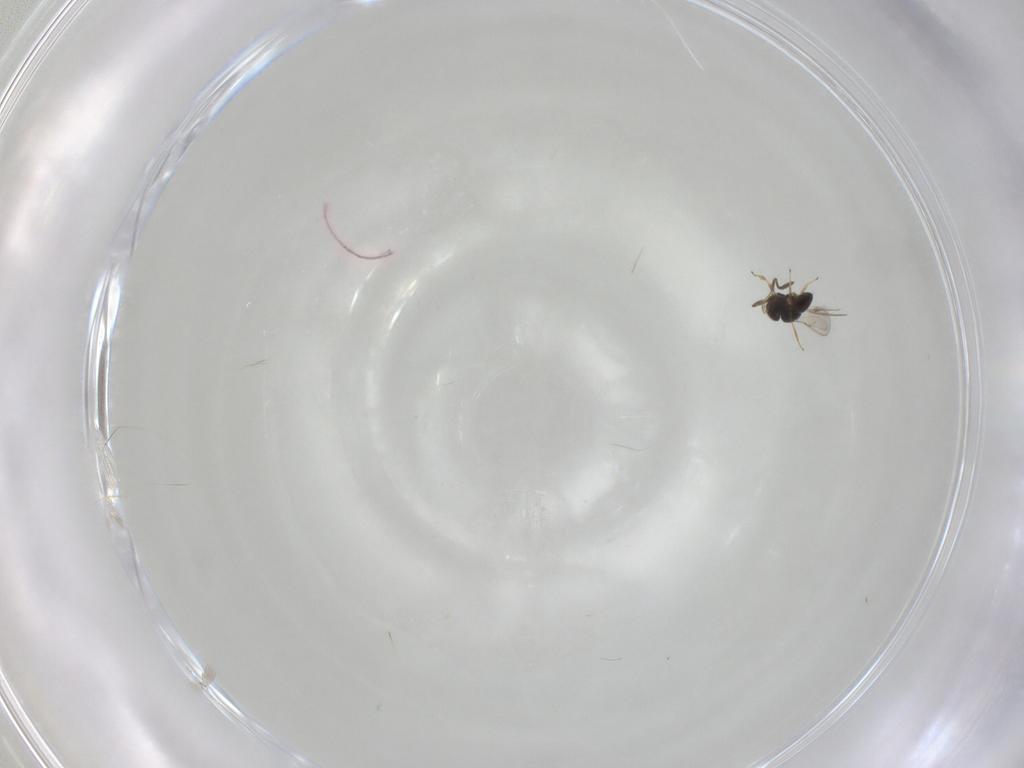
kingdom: Animalia
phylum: Arthropoda
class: Insecta
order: Hymenoptera
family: Scelionidae
